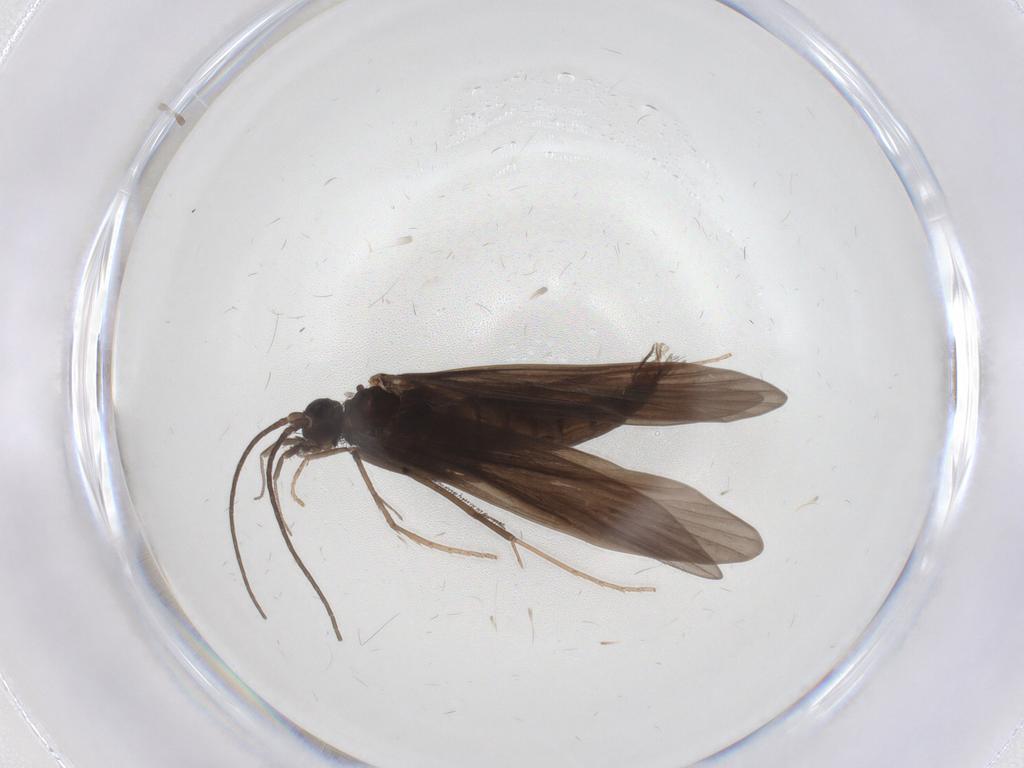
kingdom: Animalia
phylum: Arthropoda
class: Insecta
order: Trichoptera
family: Xiphocentronidae
